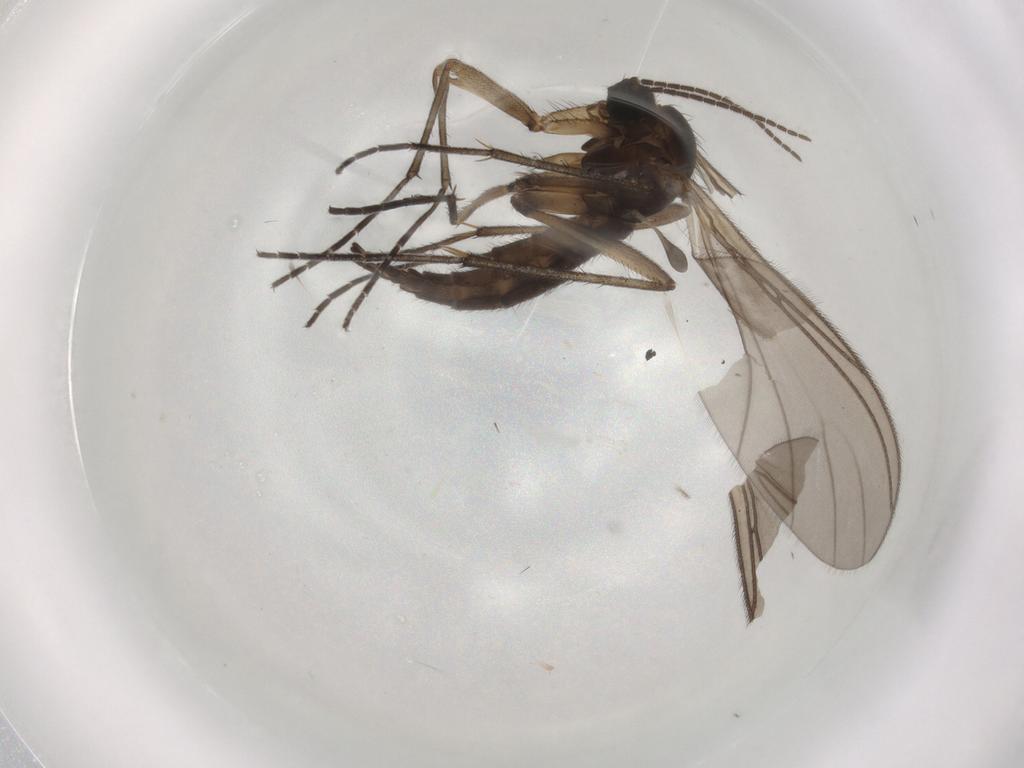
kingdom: Animalia
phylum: Arthropoda
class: Insecta
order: Diptera
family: Sciaridae
